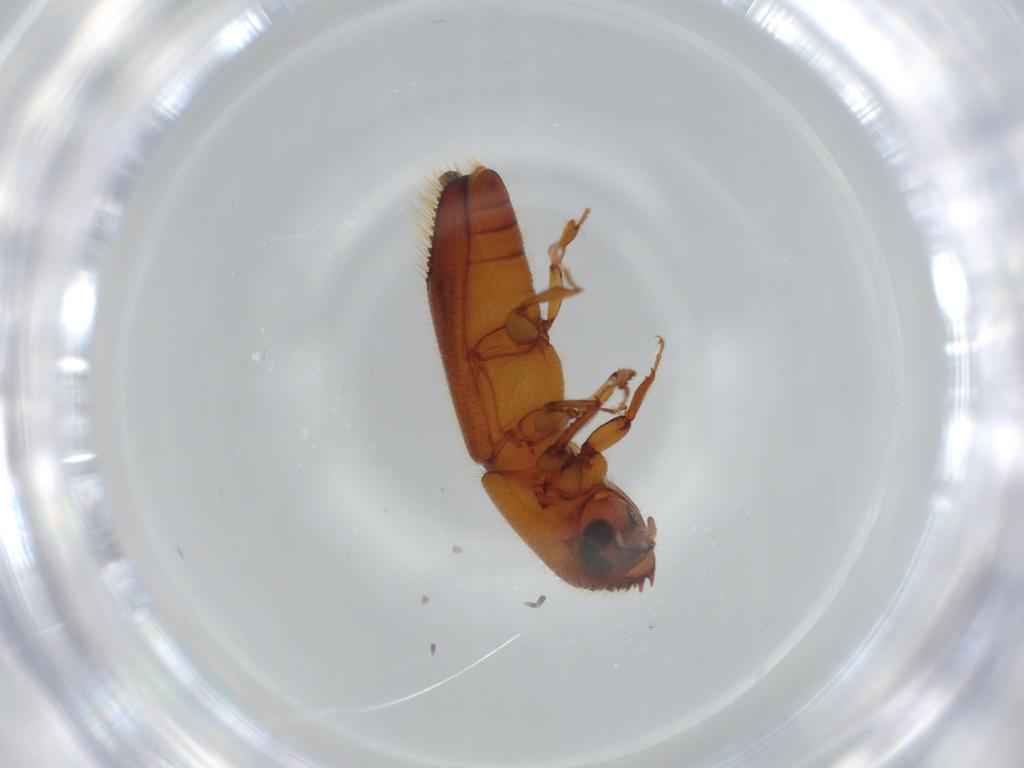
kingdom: Animalia
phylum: Arthropoda
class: Insecta
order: Coleoptera
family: Curculionidae
